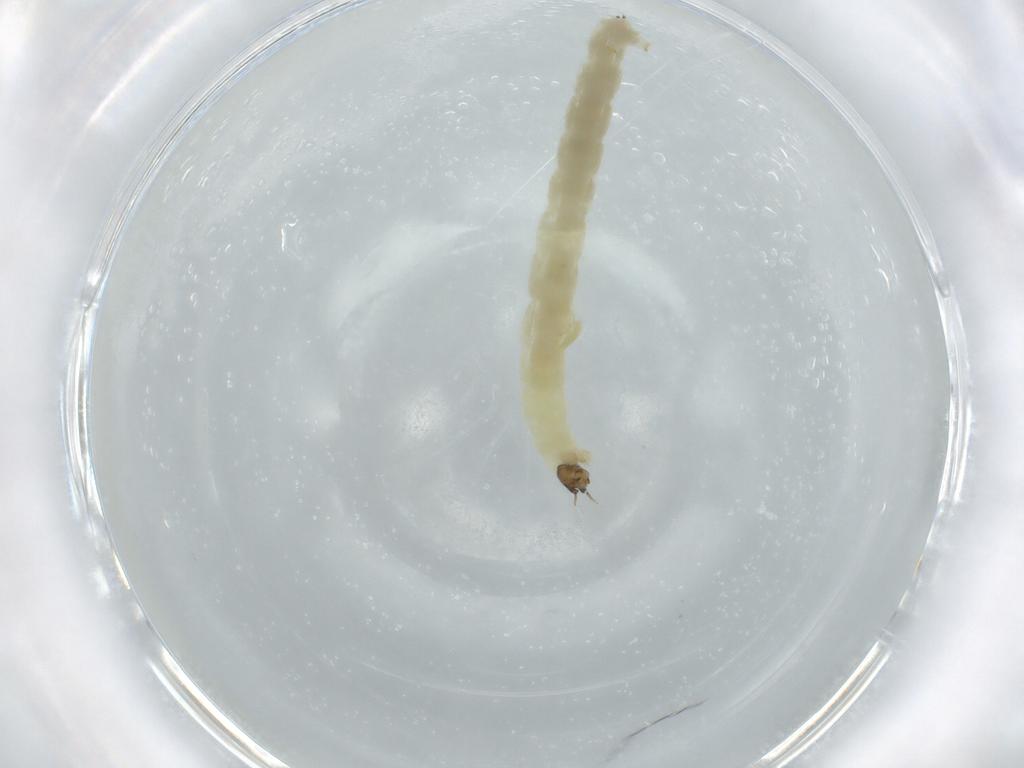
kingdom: Animalia
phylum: Arthropoda
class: Insecta
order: Diptera
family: Chironomidae
